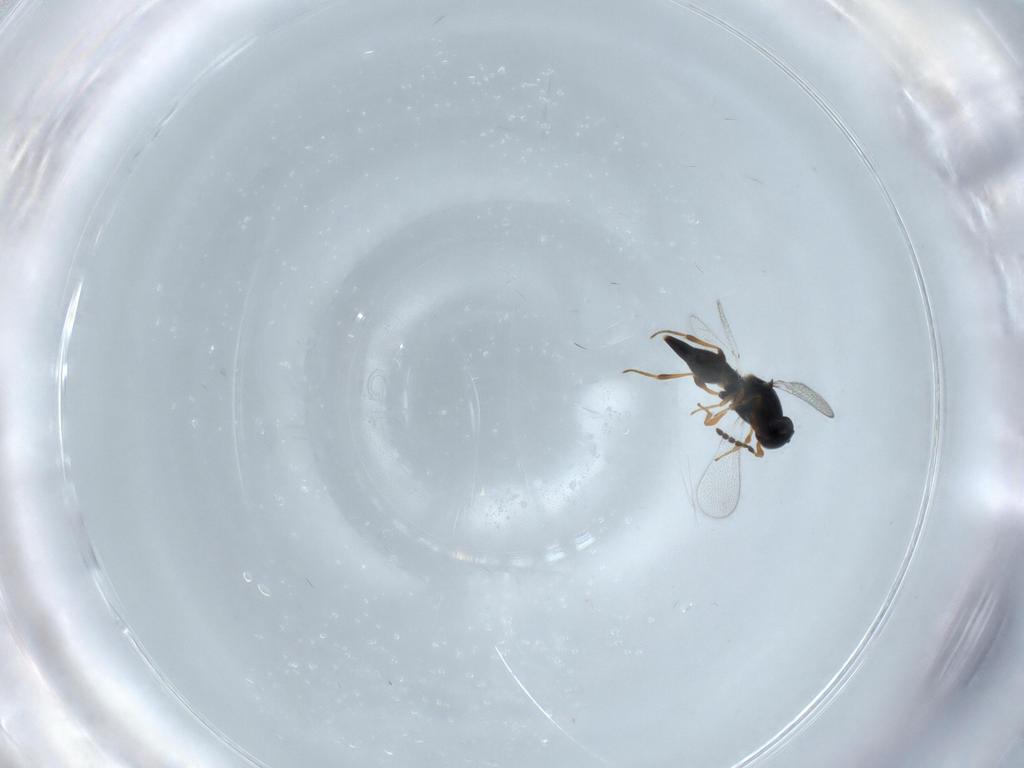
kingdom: Animalia
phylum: Arthropoda
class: Insecta
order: Hymenoptera
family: Platygastridae
